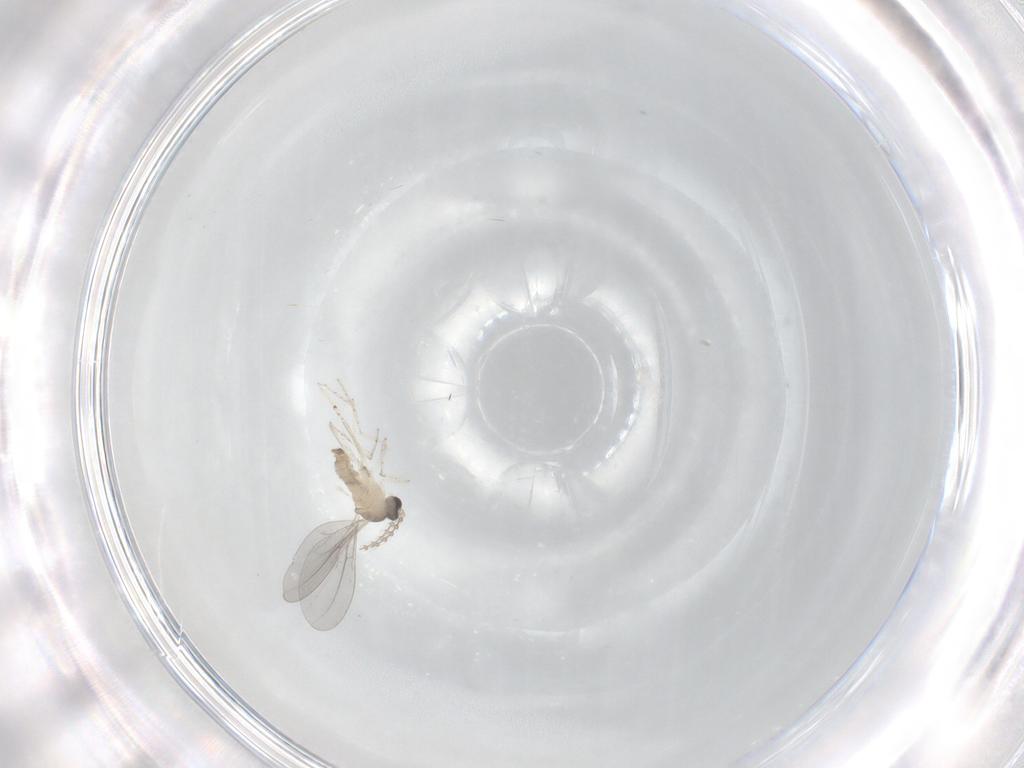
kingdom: Animalia
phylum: Arthropoda
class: Insecta
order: Diptera
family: Cecidomyiidae
